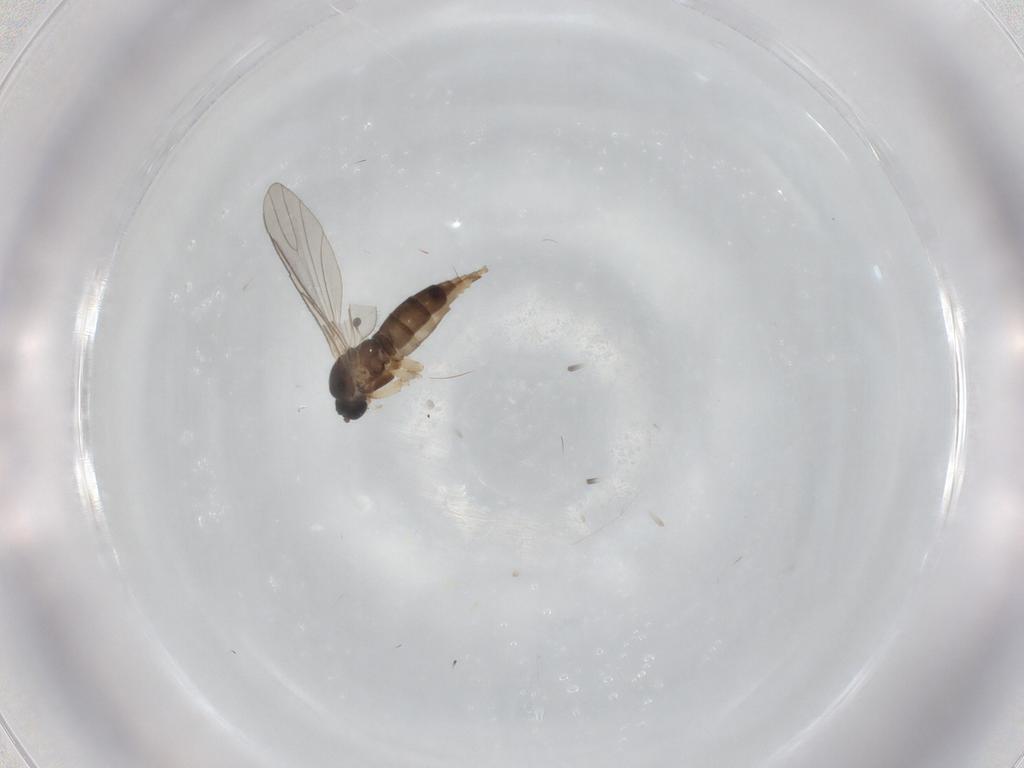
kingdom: Animalia
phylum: Arthropoda
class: Insecta
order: Diptera
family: Sciaridae
